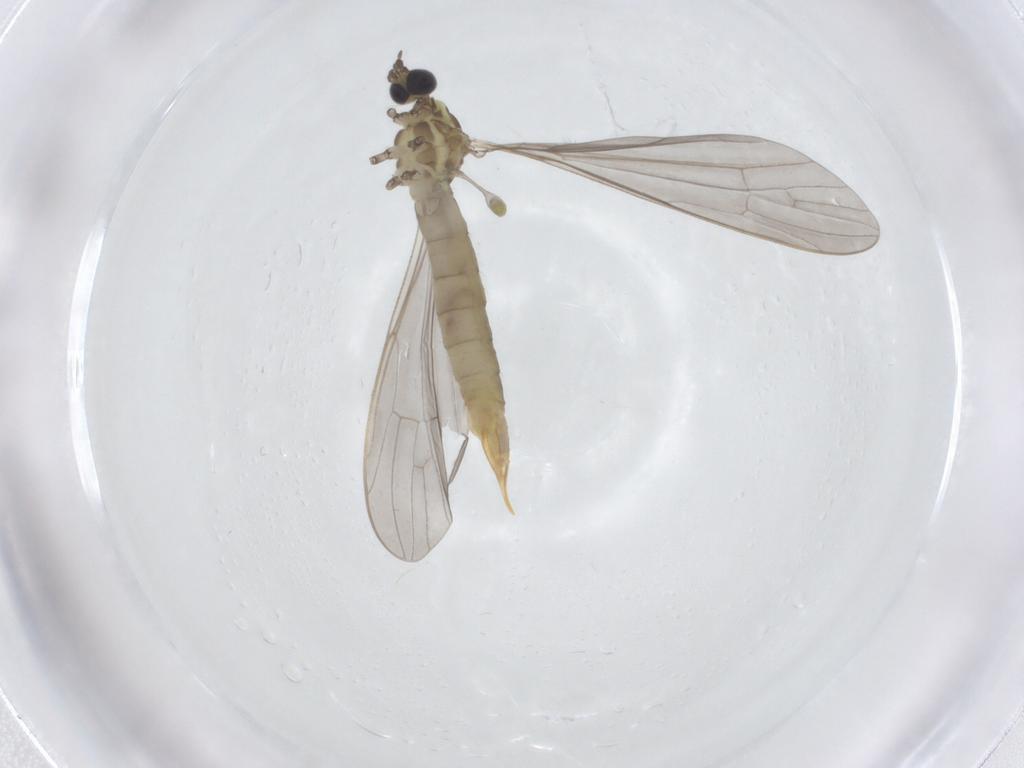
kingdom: Animalia
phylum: Arthropoda
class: Insecta
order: Diptera
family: Limoniidae
